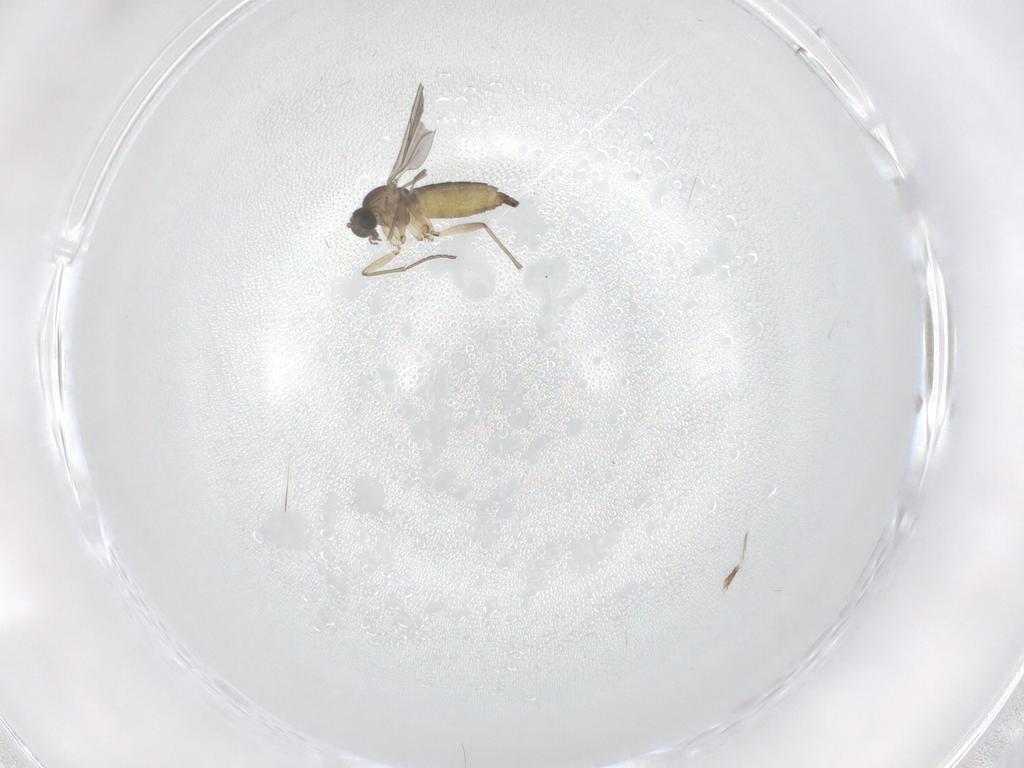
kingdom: Animalia
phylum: Arthropoda
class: Insecta
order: Diptera
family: Sciaridae
